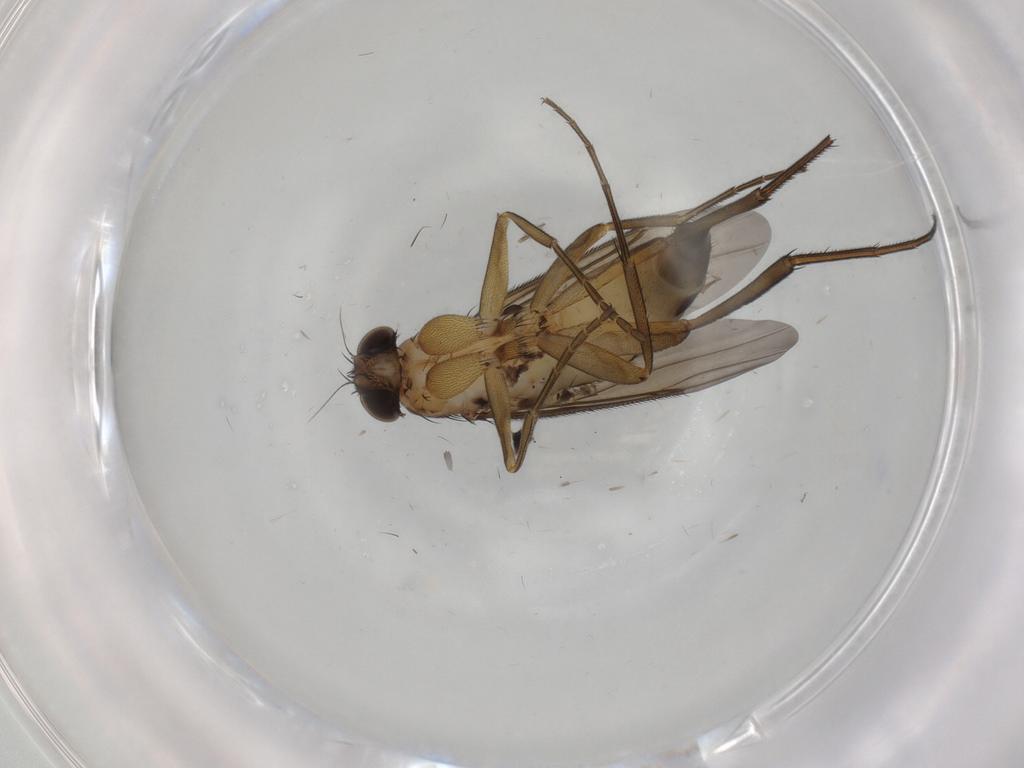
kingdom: Animalia
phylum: Arthropoda
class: Insecta
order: Diptera
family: Phoridae
